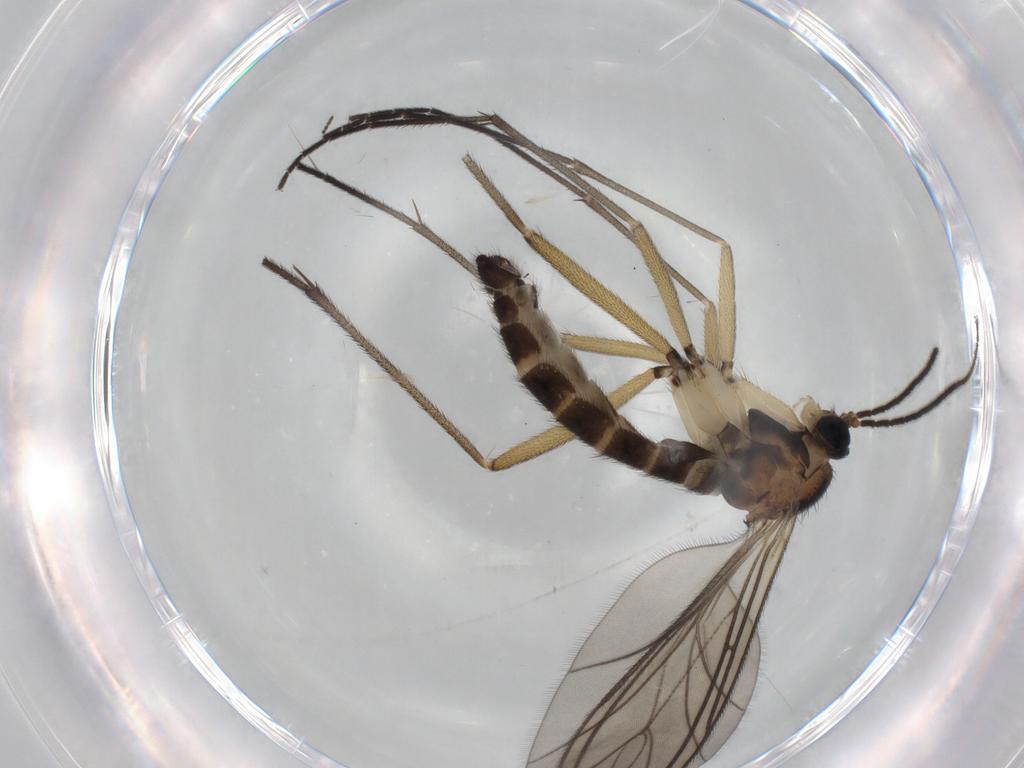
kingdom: Animalia
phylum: Arthropoda
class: Insecta
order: Diptera
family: Sciaridae
